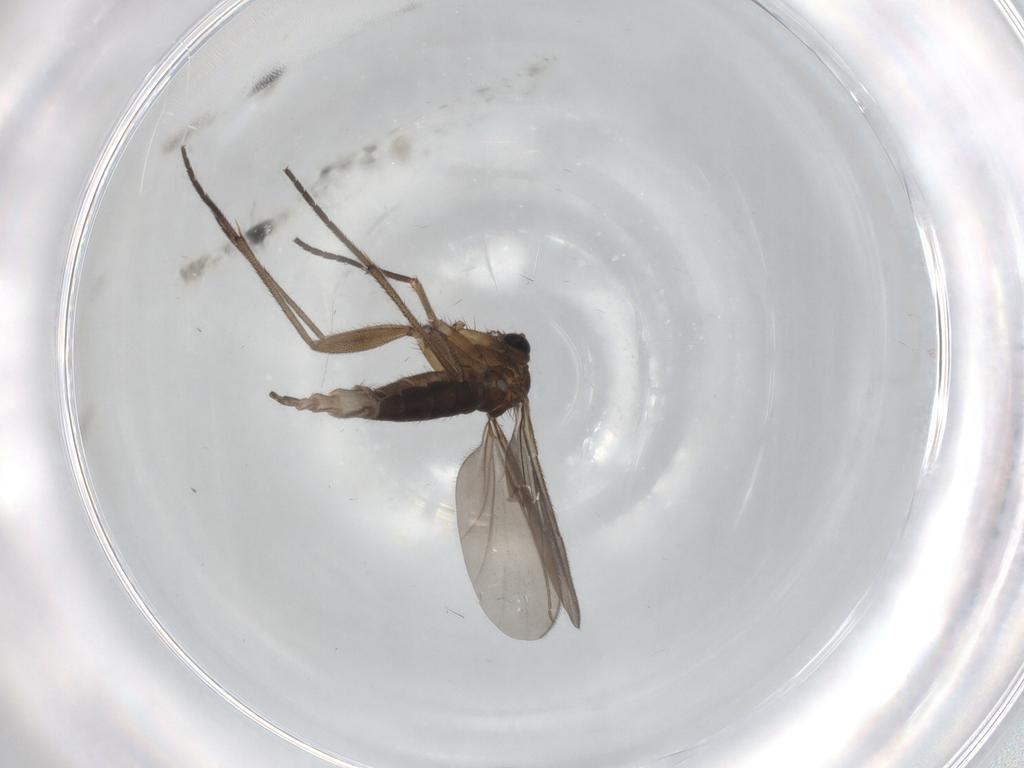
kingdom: Animalia
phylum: Arthropoda
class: Insecta
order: Diptera
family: Sciaridae
